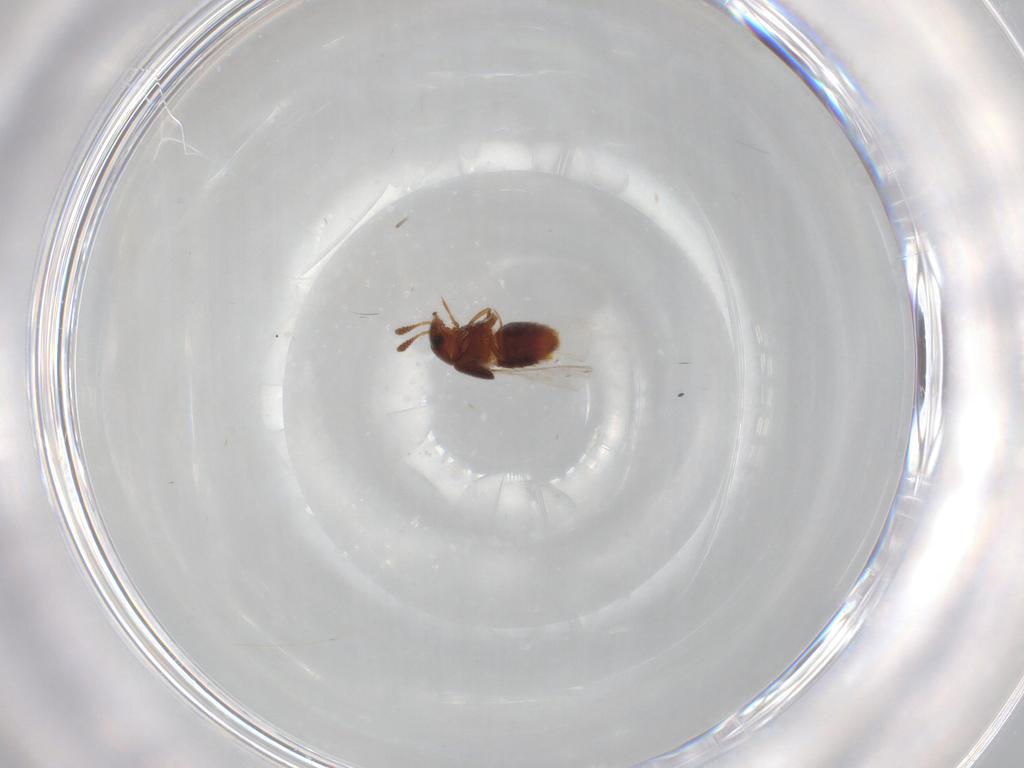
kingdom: Animalia
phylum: Arthropoda
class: Insecta
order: Coleoptera
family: Staphylinidae
